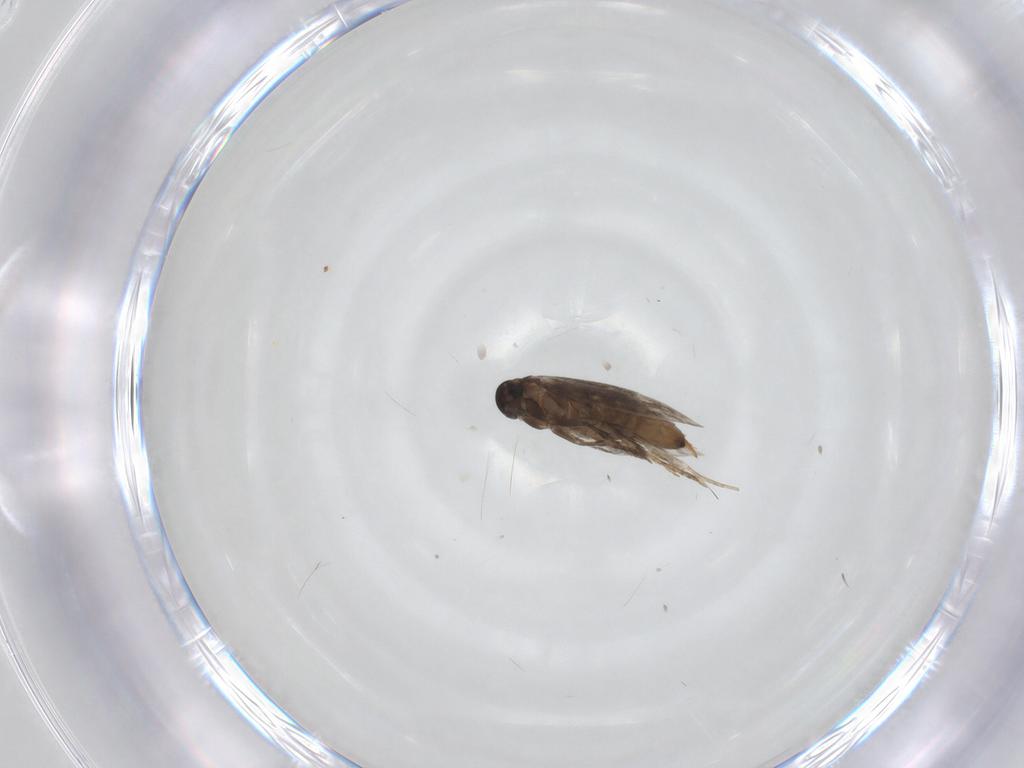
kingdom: Animalia
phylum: Arthropoda
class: Insecta
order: Lepidoptera
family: Heliozelidae
